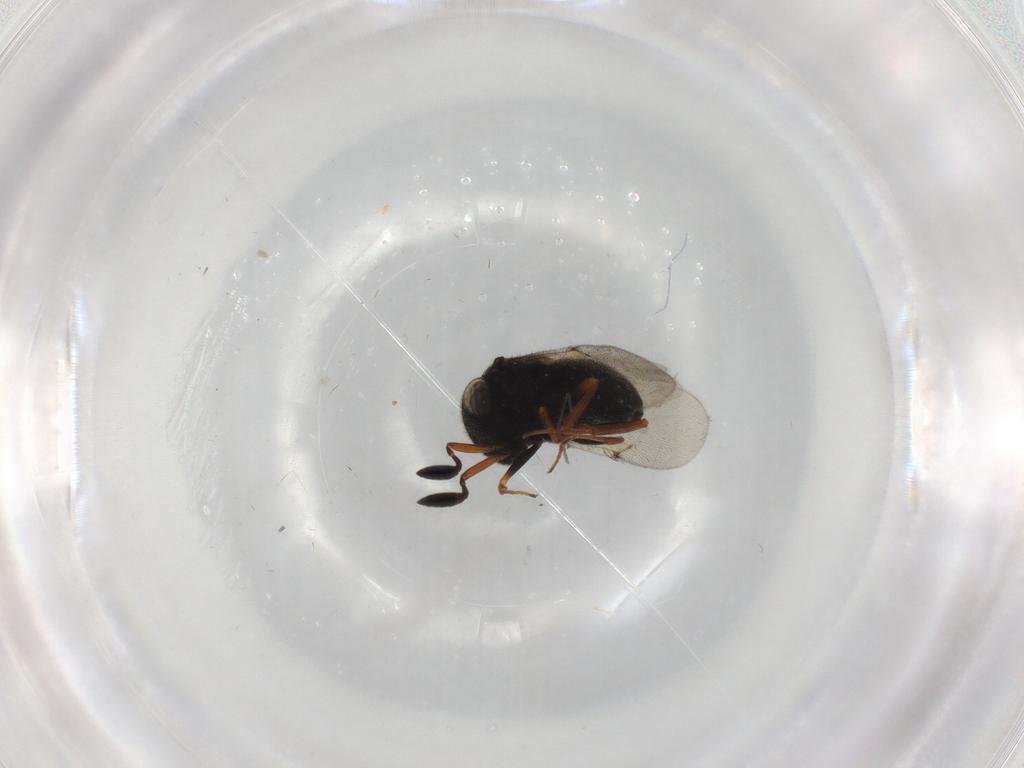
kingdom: Animalia
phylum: Arthropoda
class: Insecta
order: Hymenoptera
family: Scelionidae
